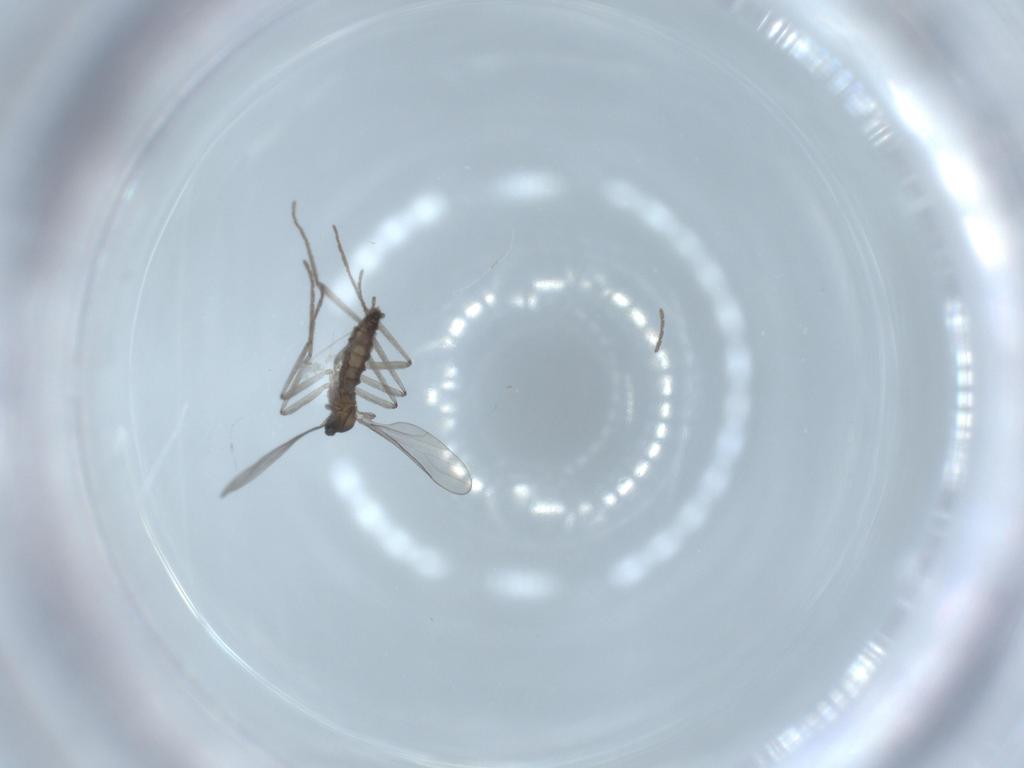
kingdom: Animalia
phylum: Arthropoda
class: Insecta
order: Diptera
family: Cecidomyiidae
